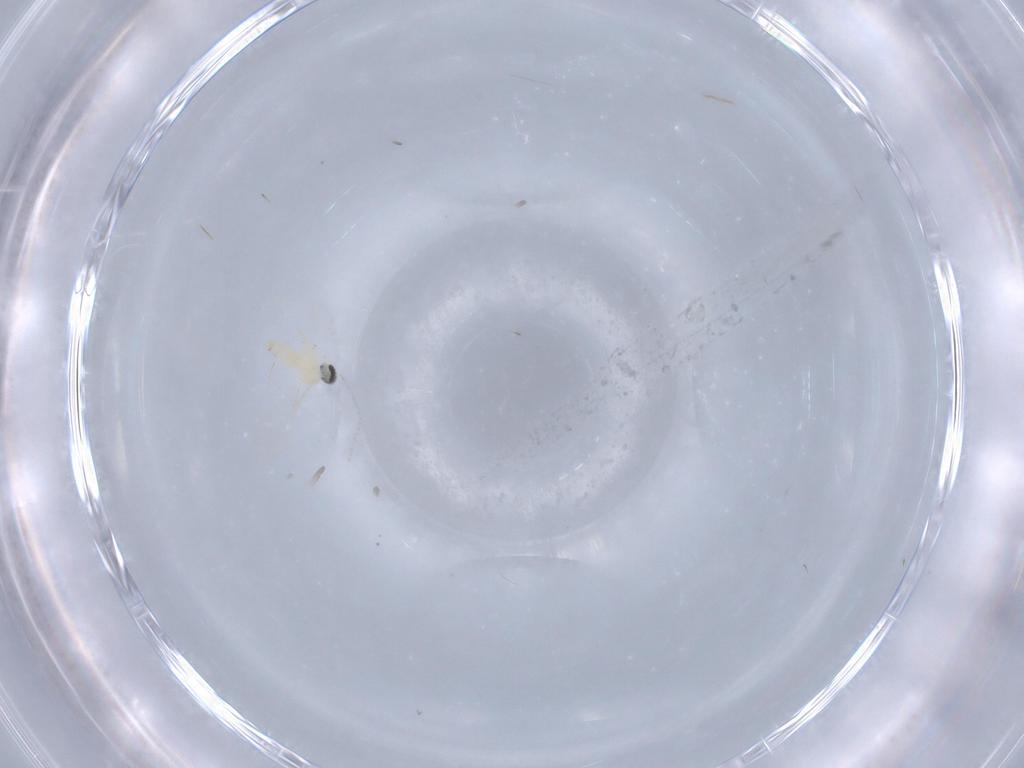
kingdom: Animalia
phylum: Arthropoda
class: Insecta
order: Diptera
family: Cecidomyiidae
